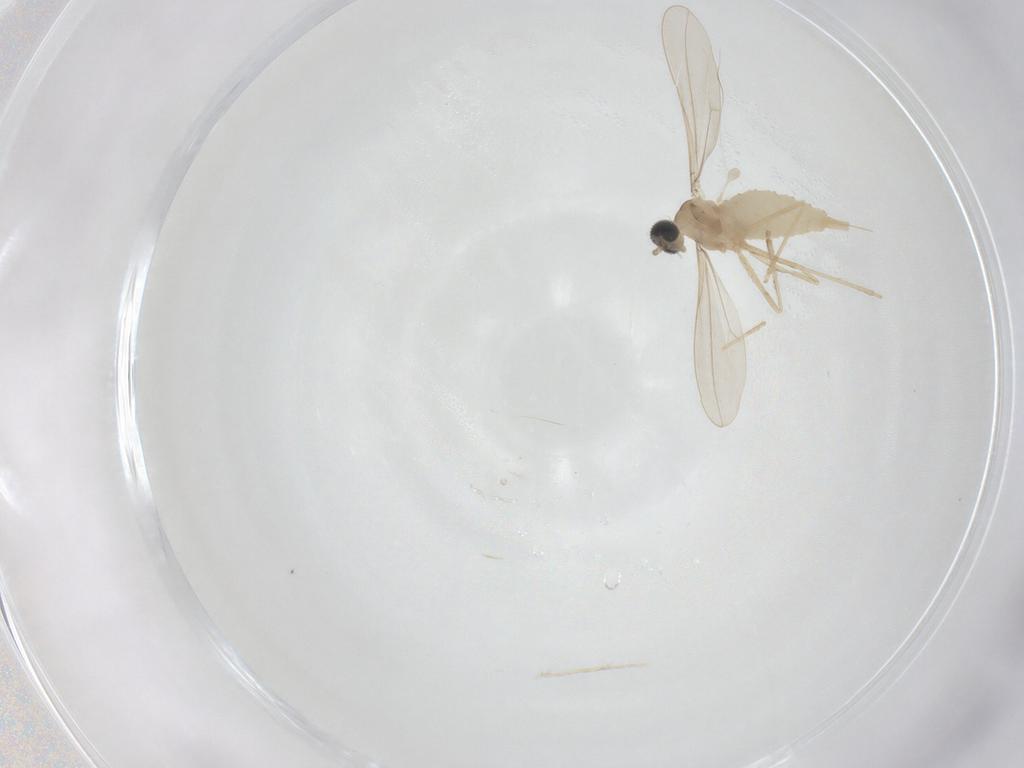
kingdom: Animalia
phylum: Arthropoda
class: Insecta
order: Diptera
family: Cecidomyiidae
